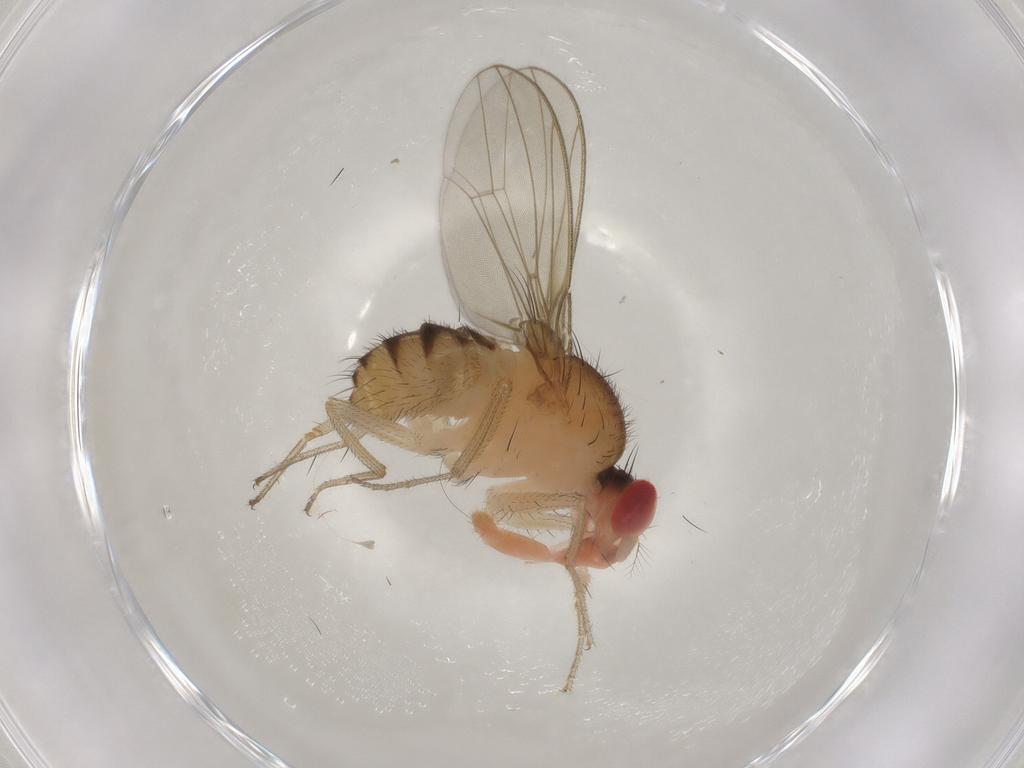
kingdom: Animalia
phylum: Arthropoda
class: Insecta
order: Diptera
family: Drosophilidae
